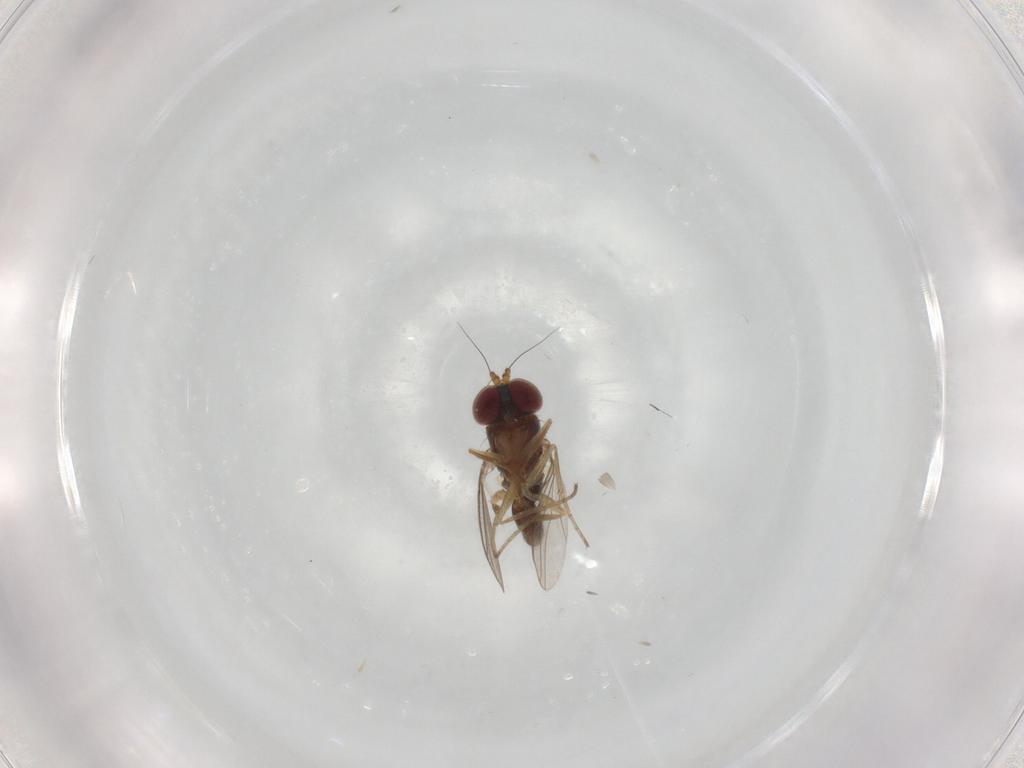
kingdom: Animalia
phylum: Arthropoda
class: Insecta
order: Diptera
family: Dolichopodidae
